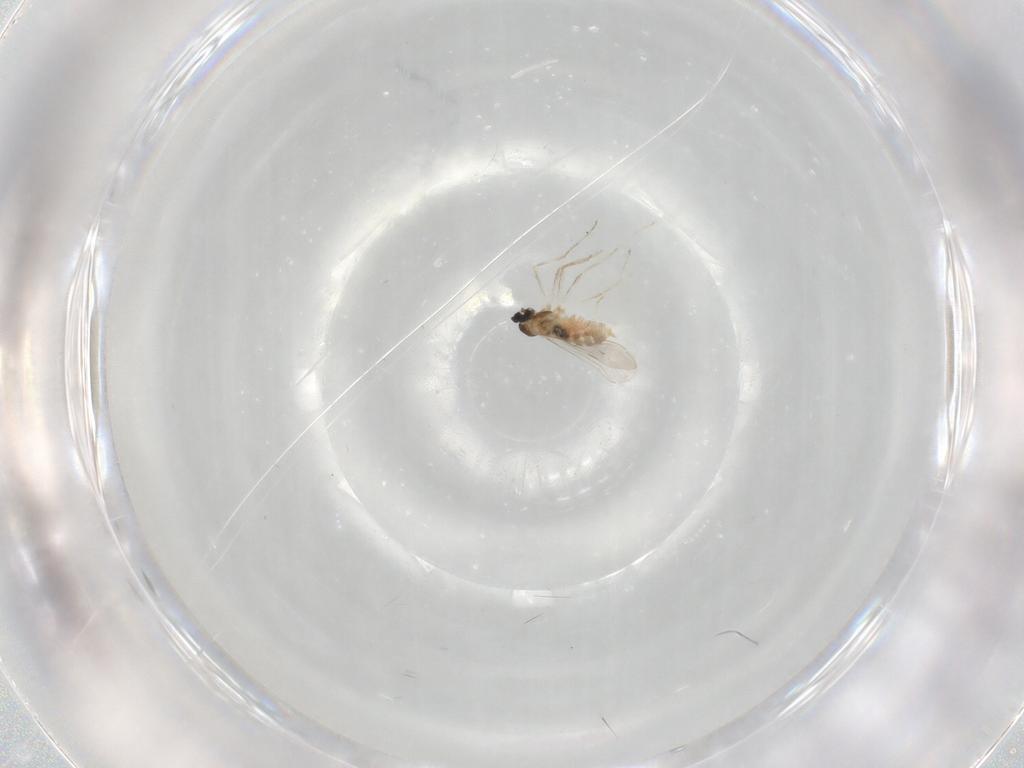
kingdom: Animalia
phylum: Arthropoda
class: Insecta
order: Diptera
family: Cecidomyiidae
